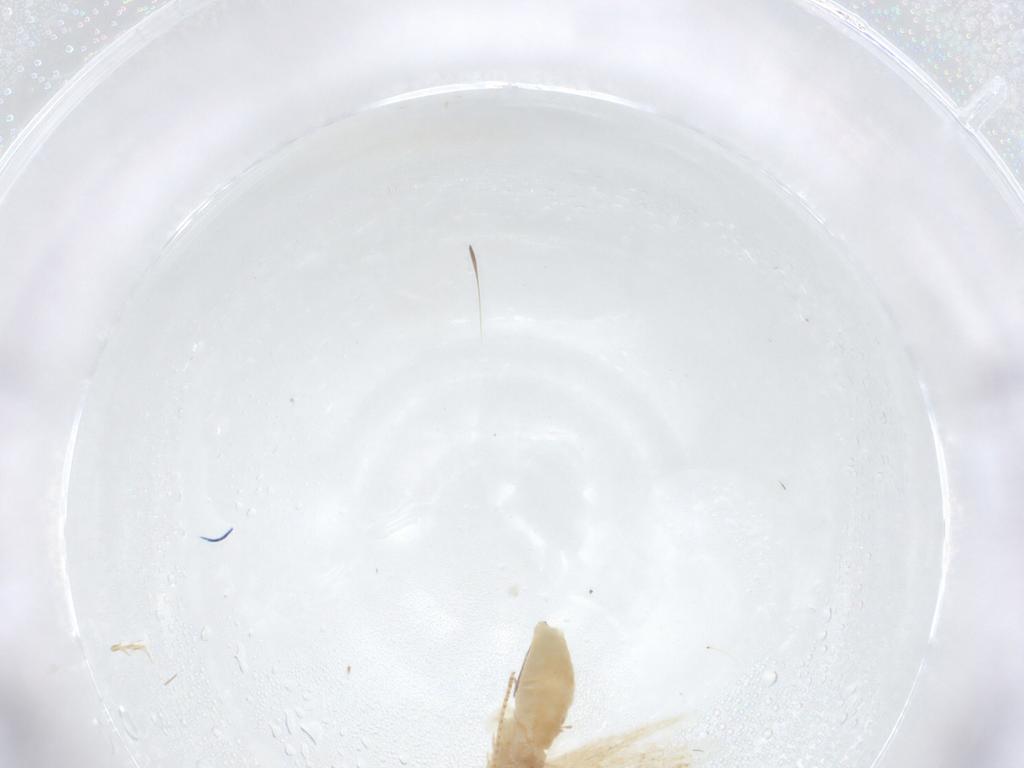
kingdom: Animalia
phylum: Arthropoda
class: Insecta
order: Lepidoptera
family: Depressariidae
